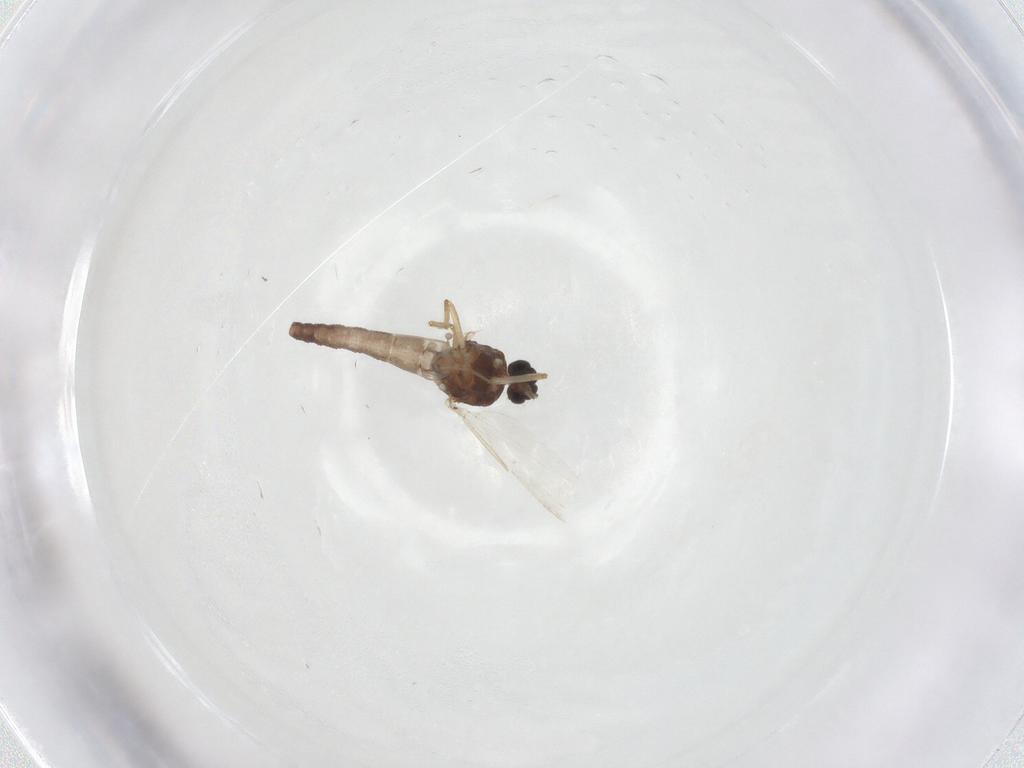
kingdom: Animalia
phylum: Arthropoda
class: Insecta
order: Diptera
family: Ceratopogonidae
